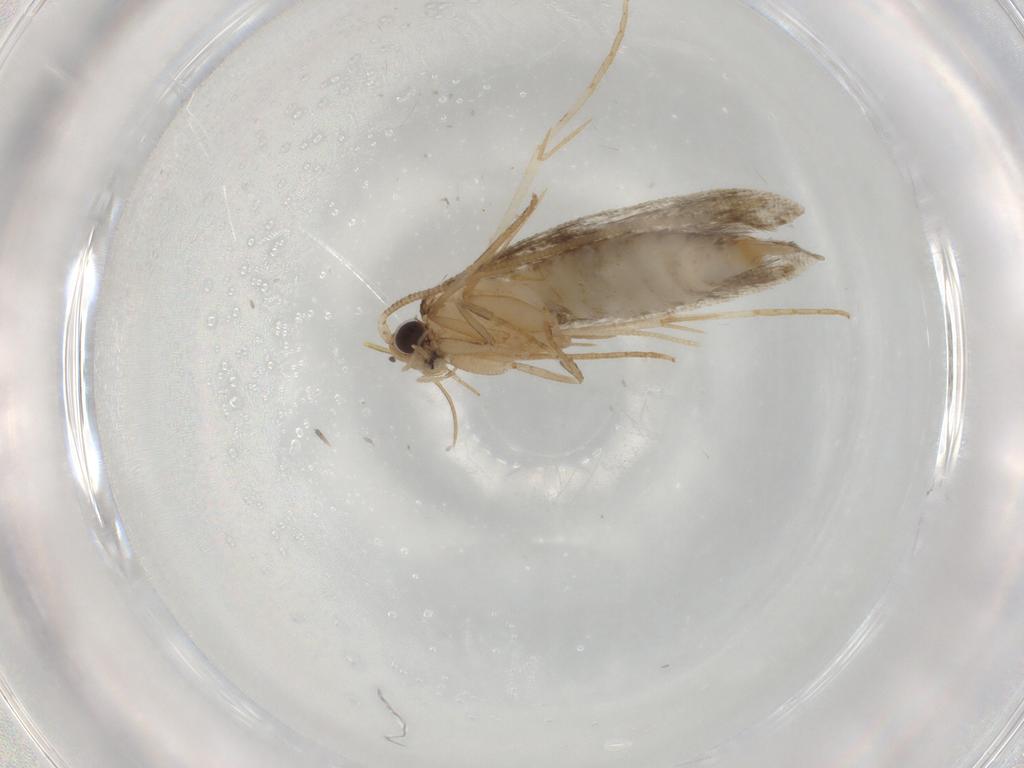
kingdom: Animalia
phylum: Arthropoda
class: Insecta
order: Lepidoptera
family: Tineidae
